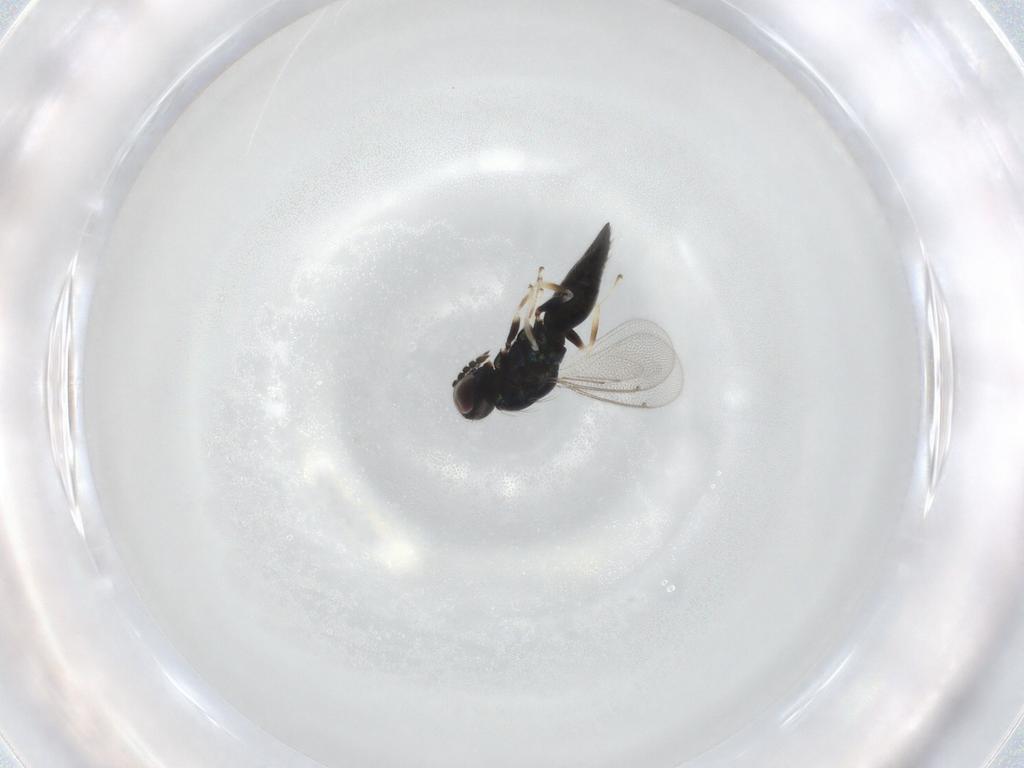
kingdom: Animalia
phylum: Arthropoda
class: Insecta
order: Hymenoptera
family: Eulophidae
